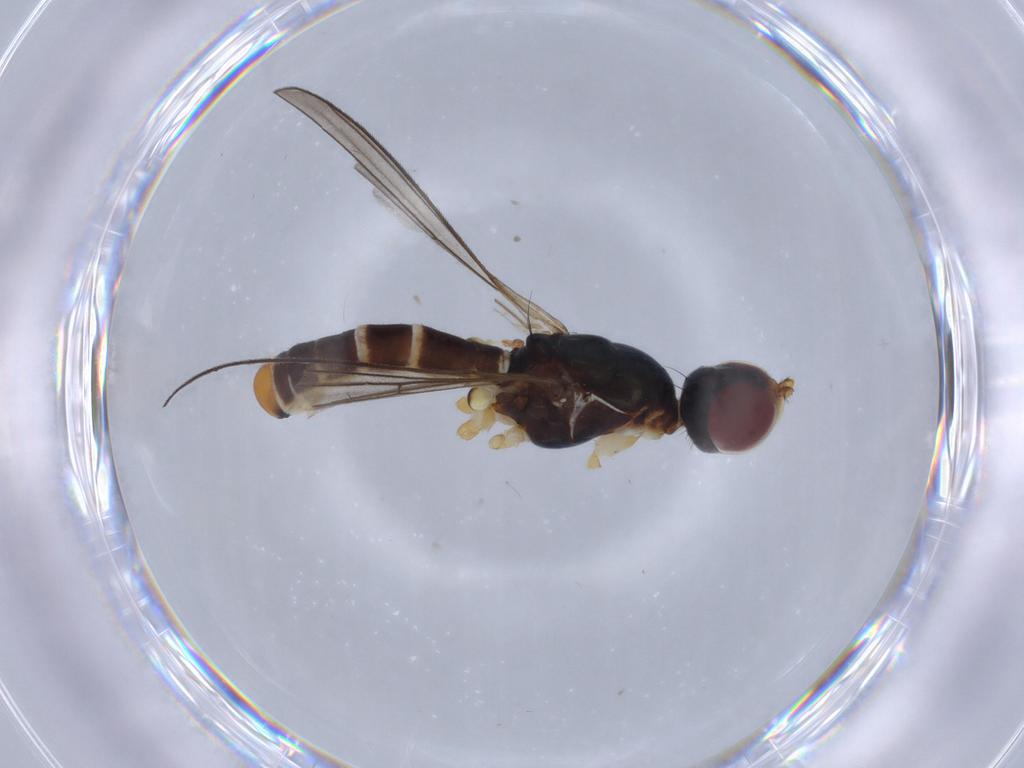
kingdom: Animalia
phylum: Arthropoda
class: Insecta
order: Diptera
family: Micropezidae
